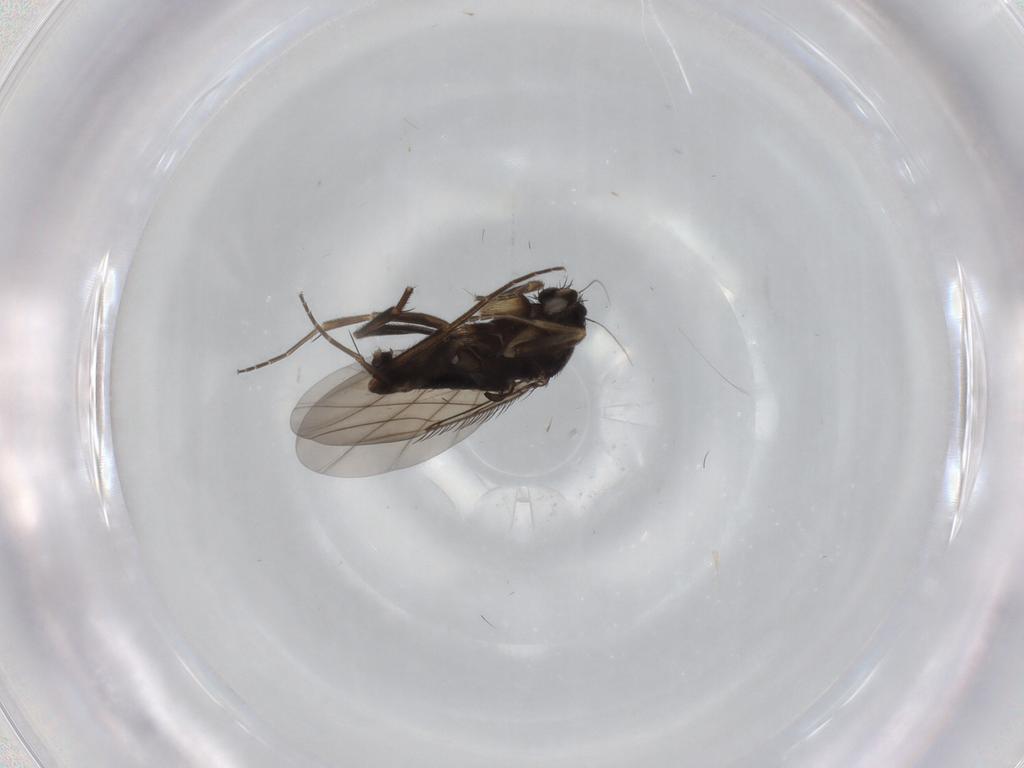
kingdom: Animalia
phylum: Arthropoda
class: Insecta
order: Diptera
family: Phoridae
